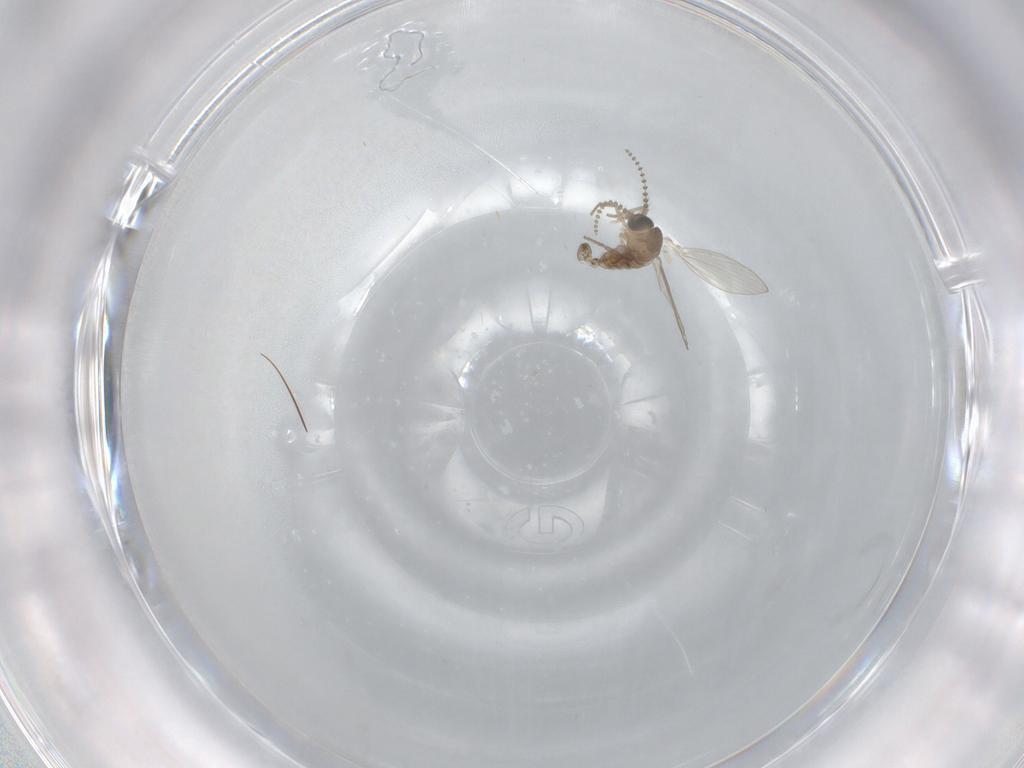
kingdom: Animalia
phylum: Arthropoda
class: Insecta
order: Diptera
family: Psychodidae
